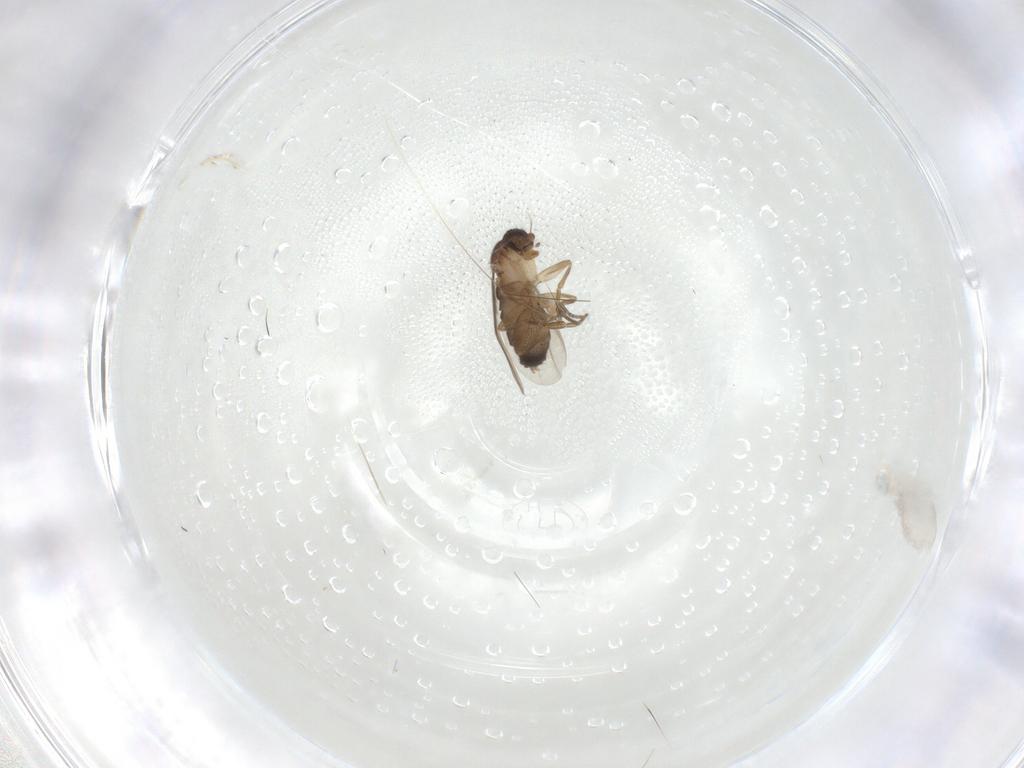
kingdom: Animalia
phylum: Arthropoda
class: Insecta
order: Diptera
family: Phoridae
